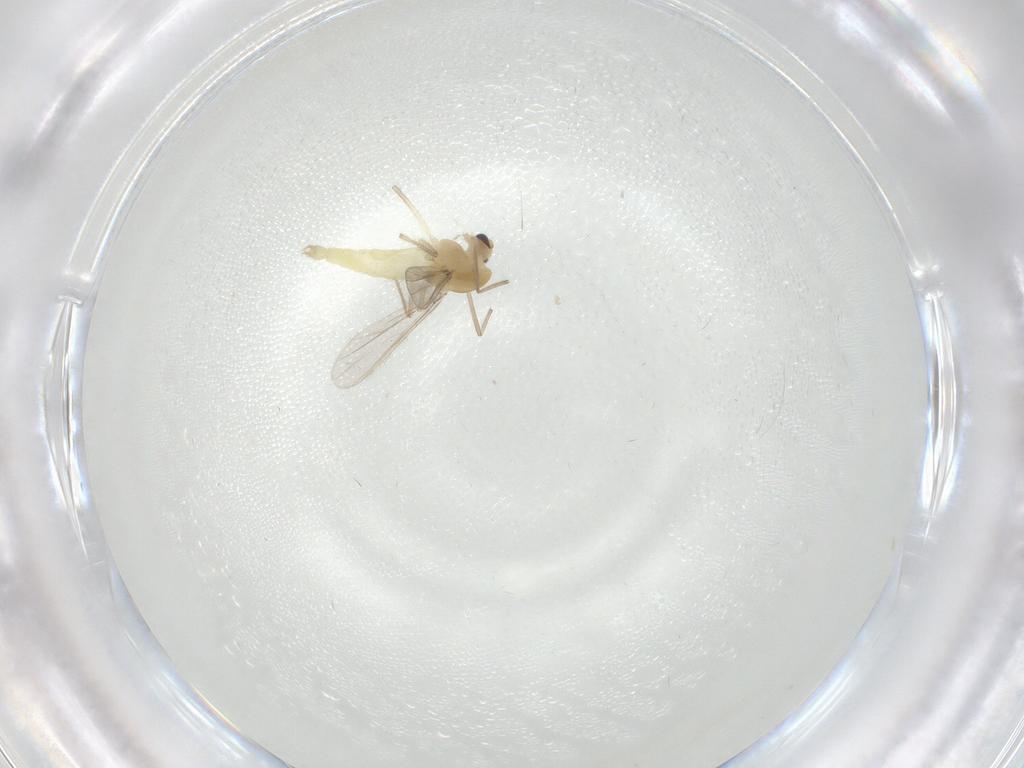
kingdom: Animalia
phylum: Arthropoda
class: Insecta
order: Diptera
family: Chironomidae
